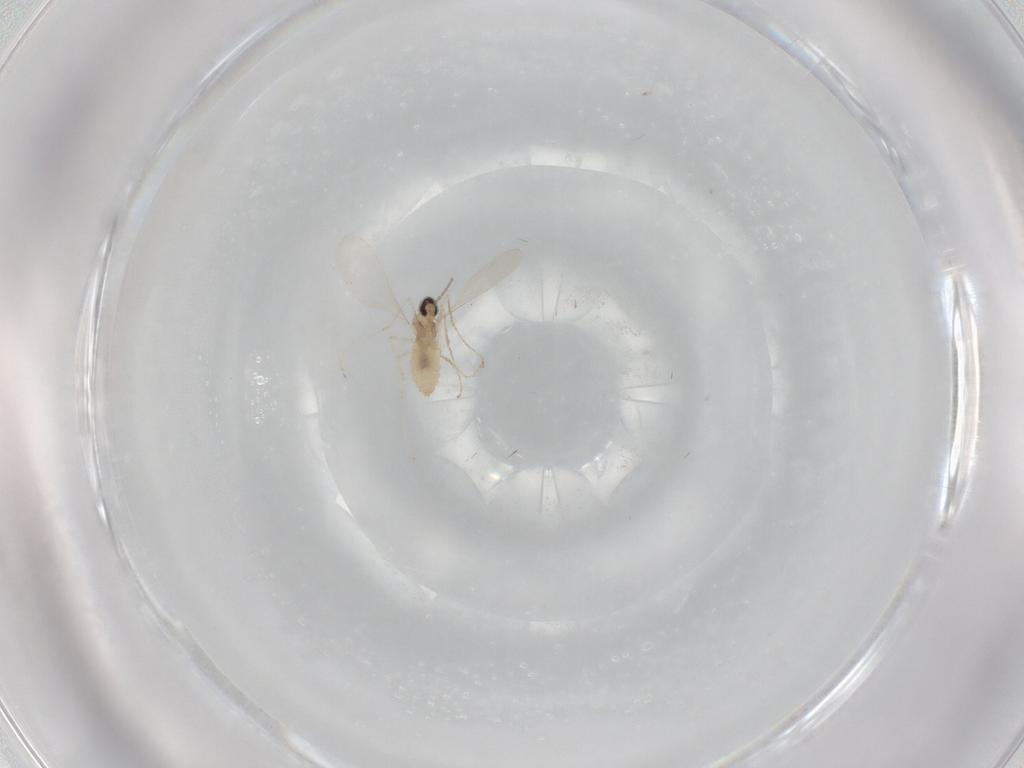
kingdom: Animalia
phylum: Arthropoda
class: Insecta
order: Diptera
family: Cecidomyiidae
